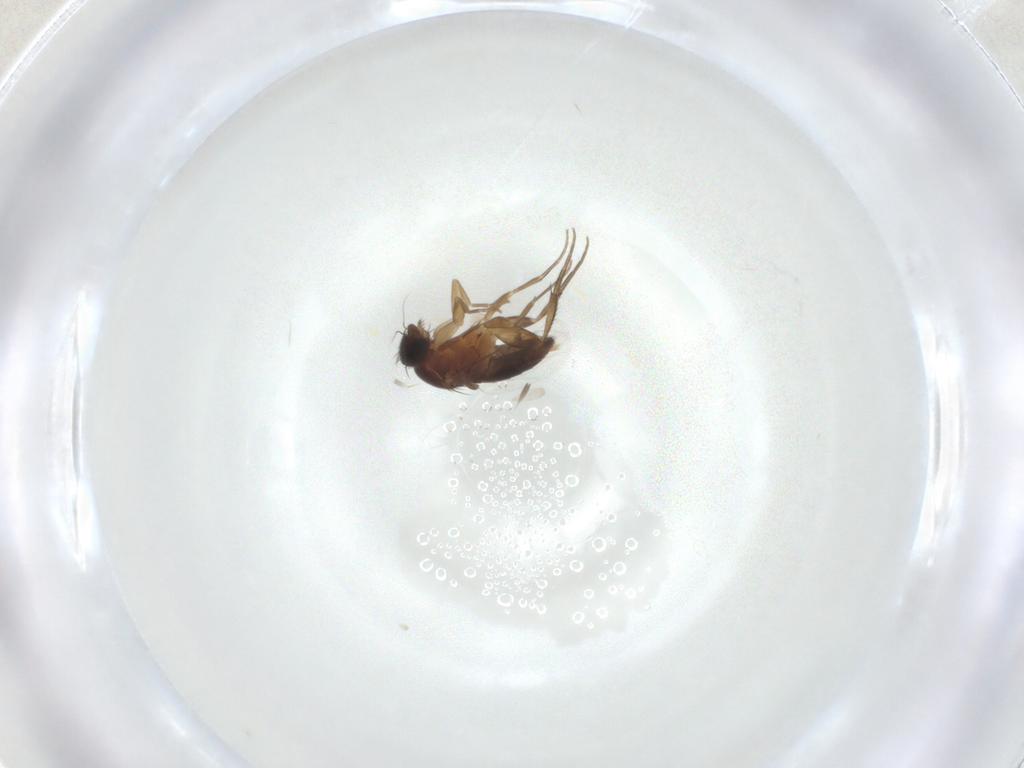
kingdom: Animalia
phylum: Arthropoda
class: Insecta
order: Diptera
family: Phoridae
